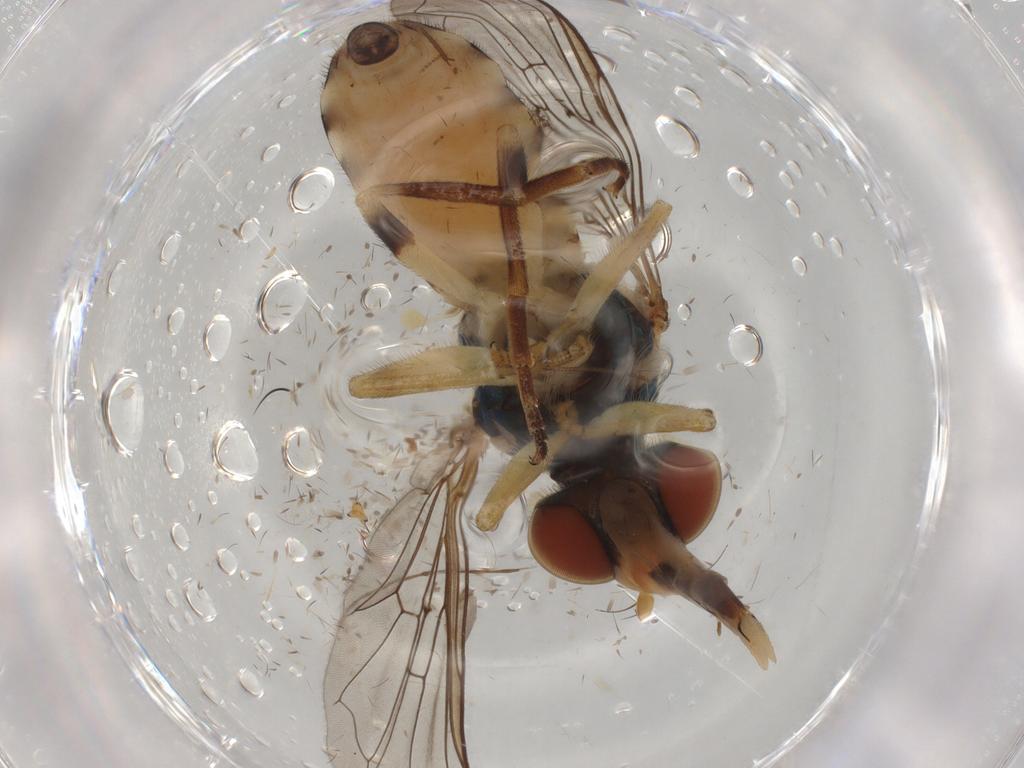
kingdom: Animalia
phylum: Arthropoda
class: Insecta
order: Diptera
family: Syrphidae
